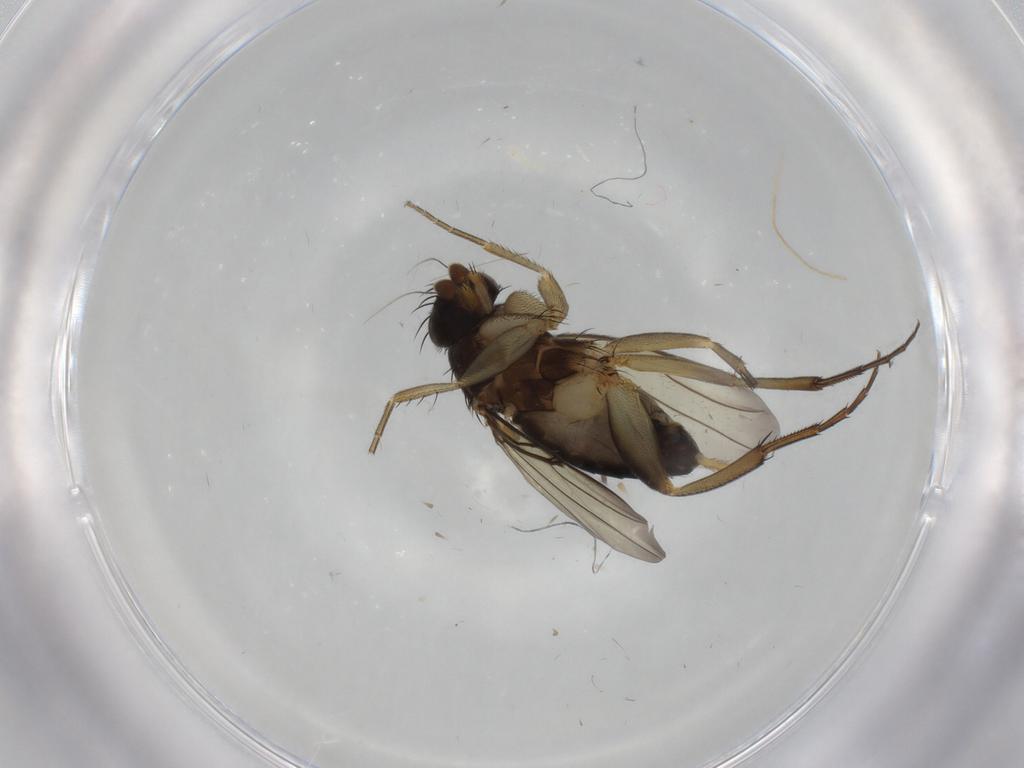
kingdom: Animalia
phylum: Arthropoda
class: Insecta
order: Diptera
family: Phoridae
